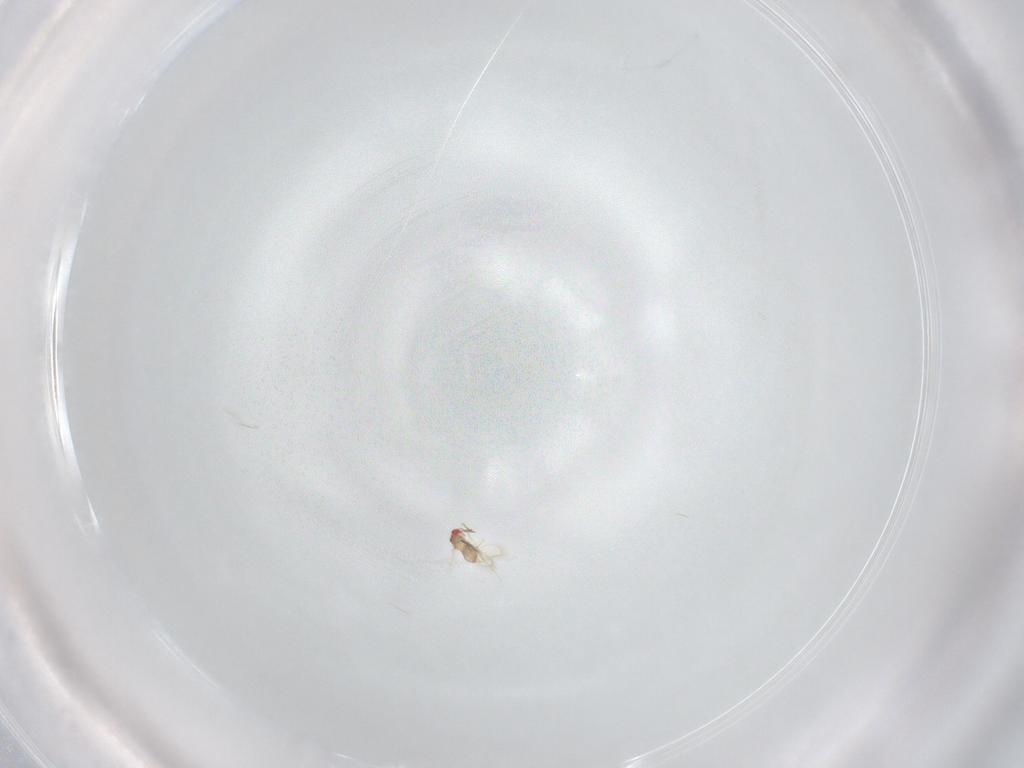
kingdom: Animalia
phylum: Arthropoda
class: Insecta
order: Hymenoptera
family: Trichogrammatidae
